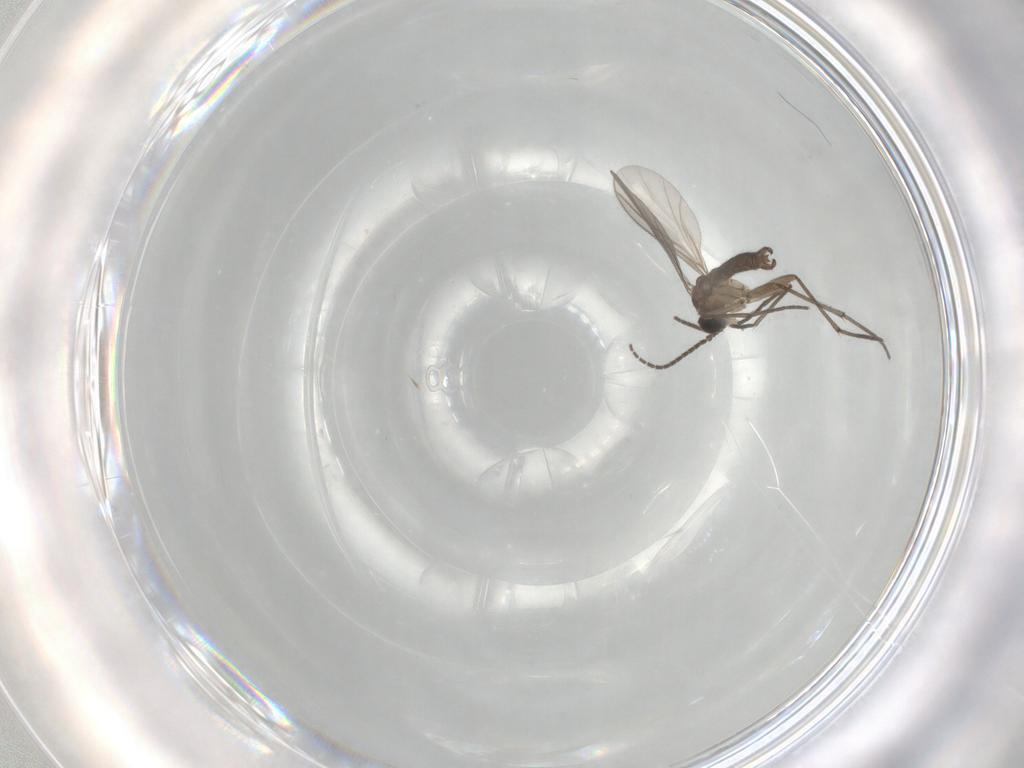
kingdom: Animalia
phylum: Arthropoda
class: Insecta
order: Diptera
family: Sciaridae
